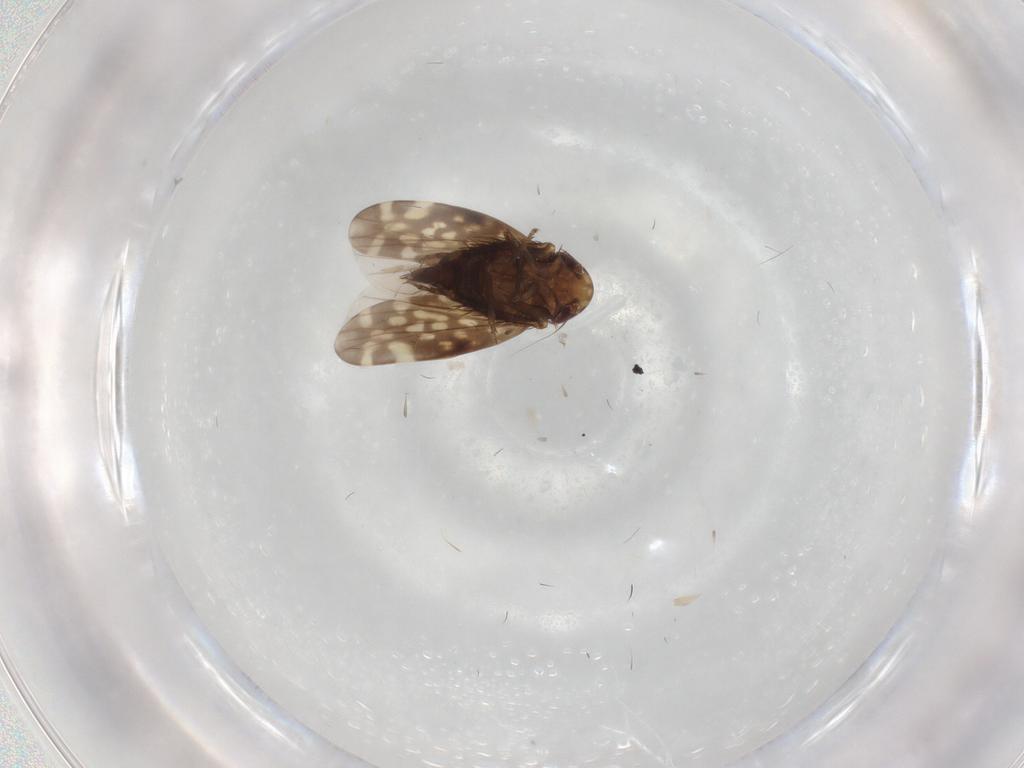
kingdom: Animalia
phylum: Arthropoda
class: Insecta
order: Hemiptera
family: Cicadellidae
